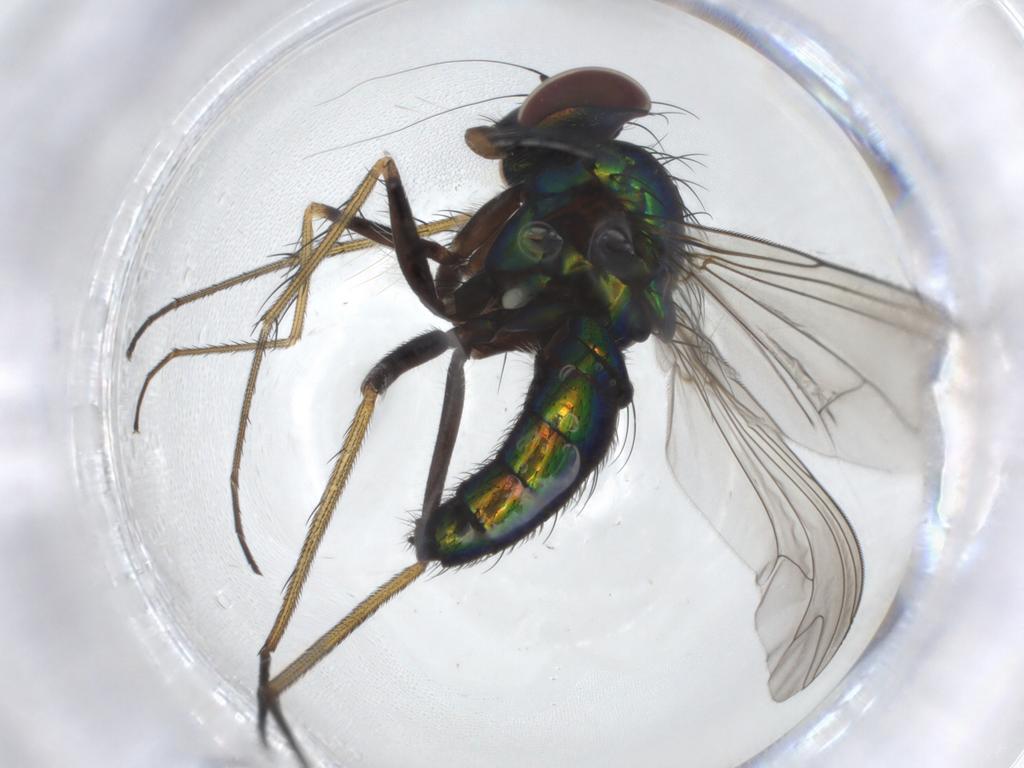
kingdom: Animalia
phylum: Arthropoda
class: Insecta
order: Diptera
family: Dolichopodidae
